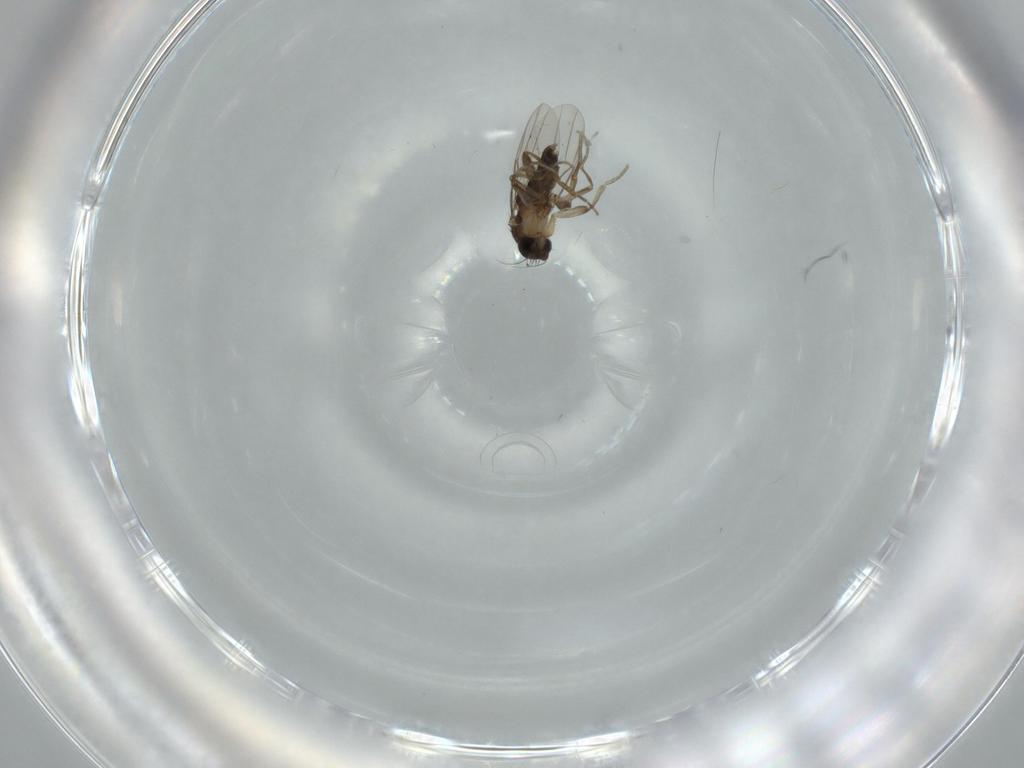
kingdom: Animalia
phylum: Arthropoda
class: Insecta
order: Diptera
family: Phoridae
